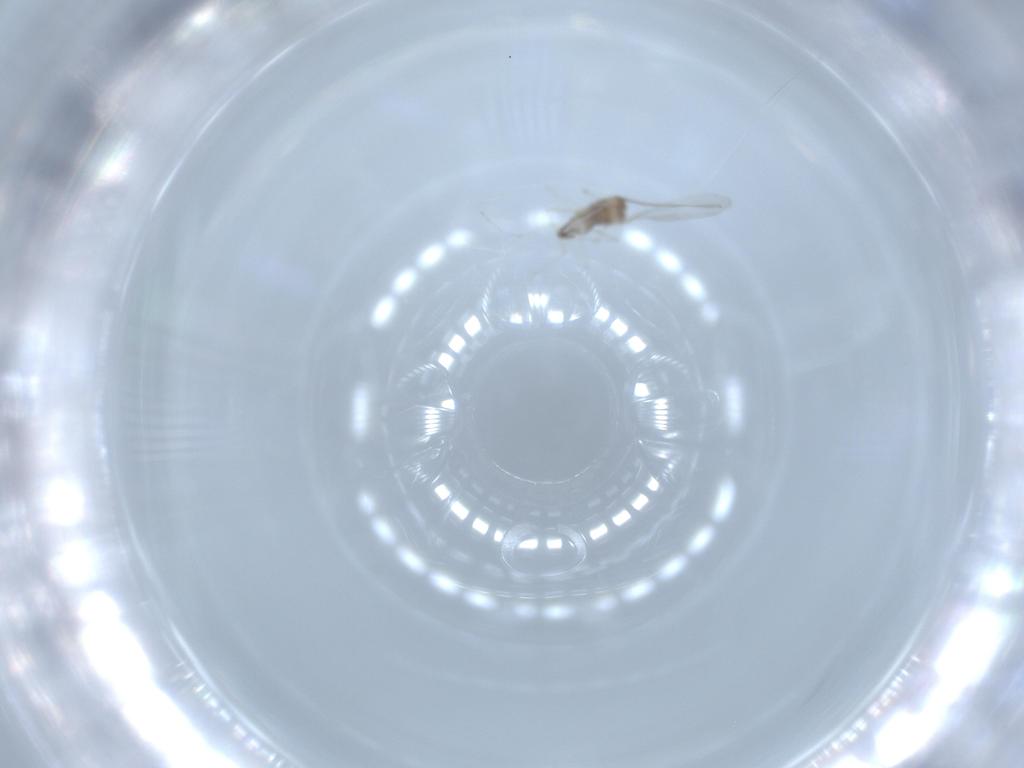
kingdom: Animalia
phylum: Arthropoda
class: Insecta
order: Diptera
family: Chironomidae
